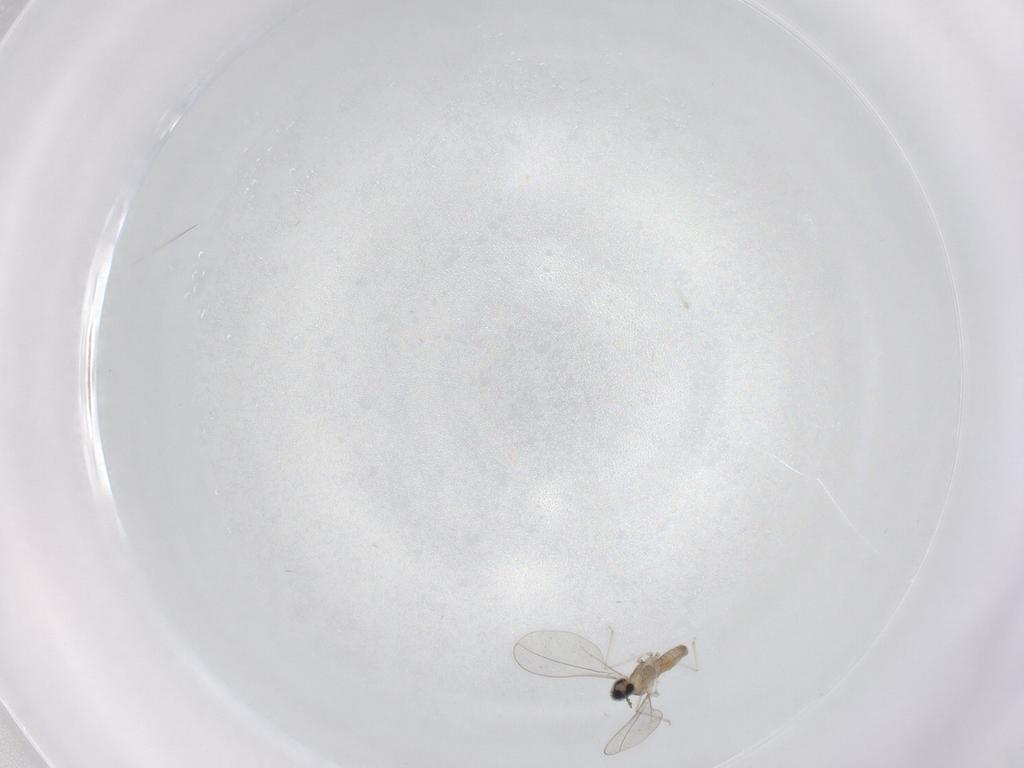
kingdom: Animalia
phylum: Arthropoda
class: Insecta
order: Diptera
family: Cecidomyiidae
